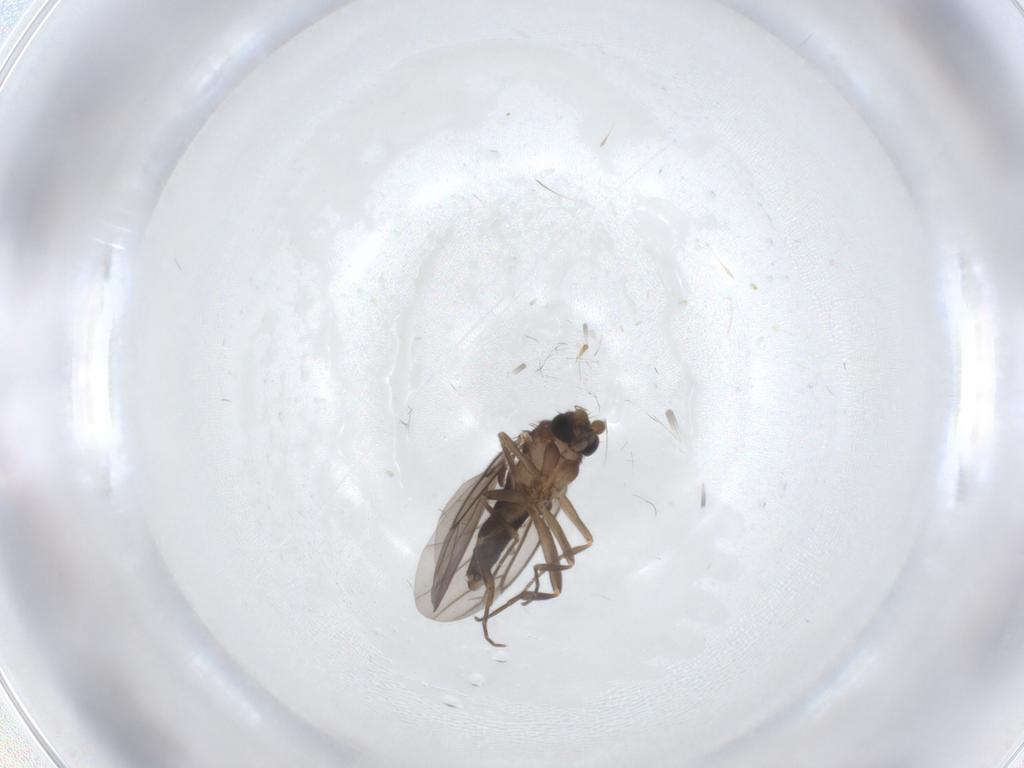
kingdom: Animalia
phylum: Arthropoda
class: Insecta
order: Diptera
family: Phoridae
